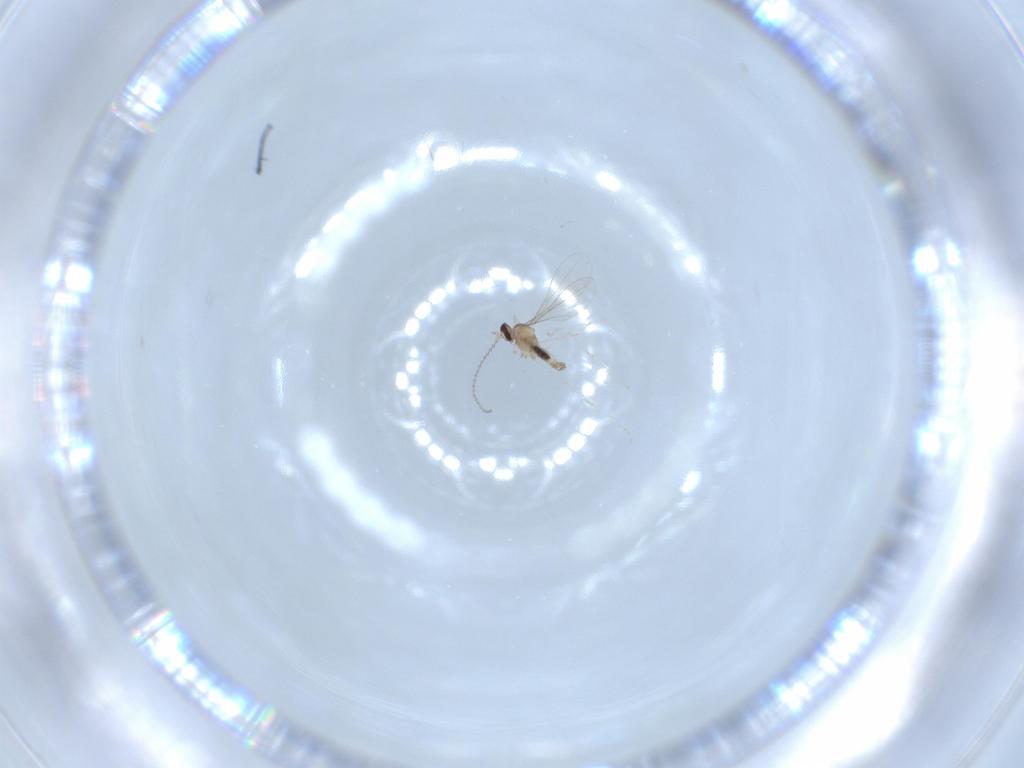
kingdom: Animalia
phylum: Arthropoda
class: Insecta
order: Diptera
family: Cecidomyiidae
